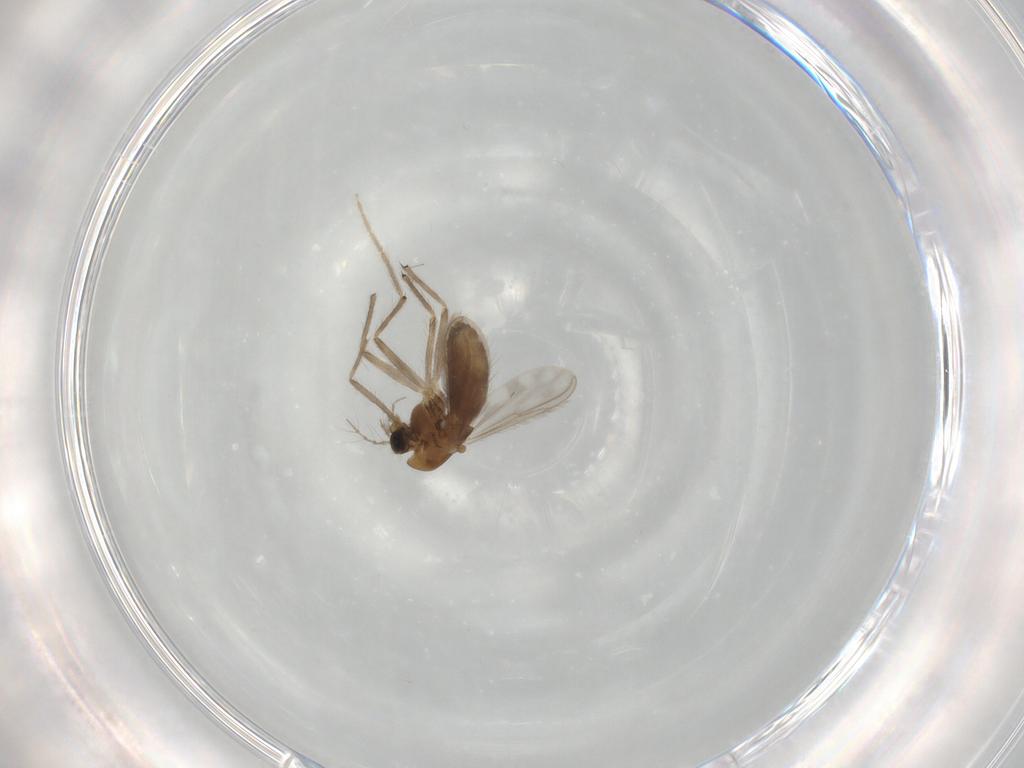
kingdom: Animalia
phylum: Arthropoda
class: Insecta
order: Diptera
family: Chironomidae
